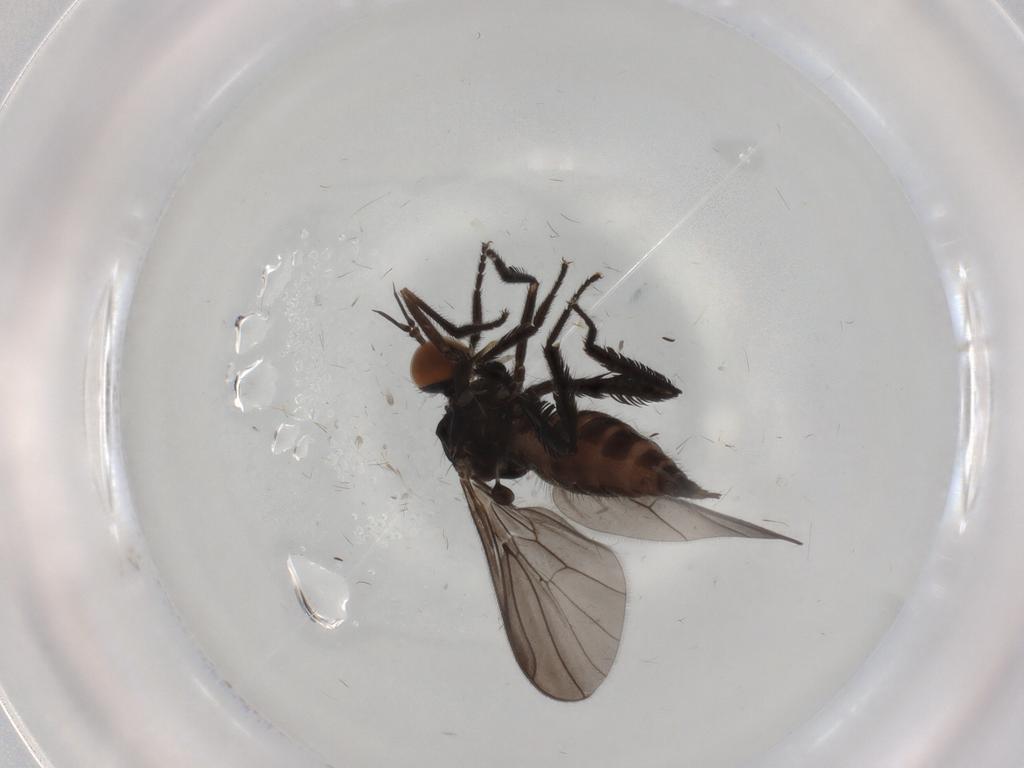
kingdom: Animalia
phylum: Arthropoda
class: Insecta
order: Diptera
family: Empididae
